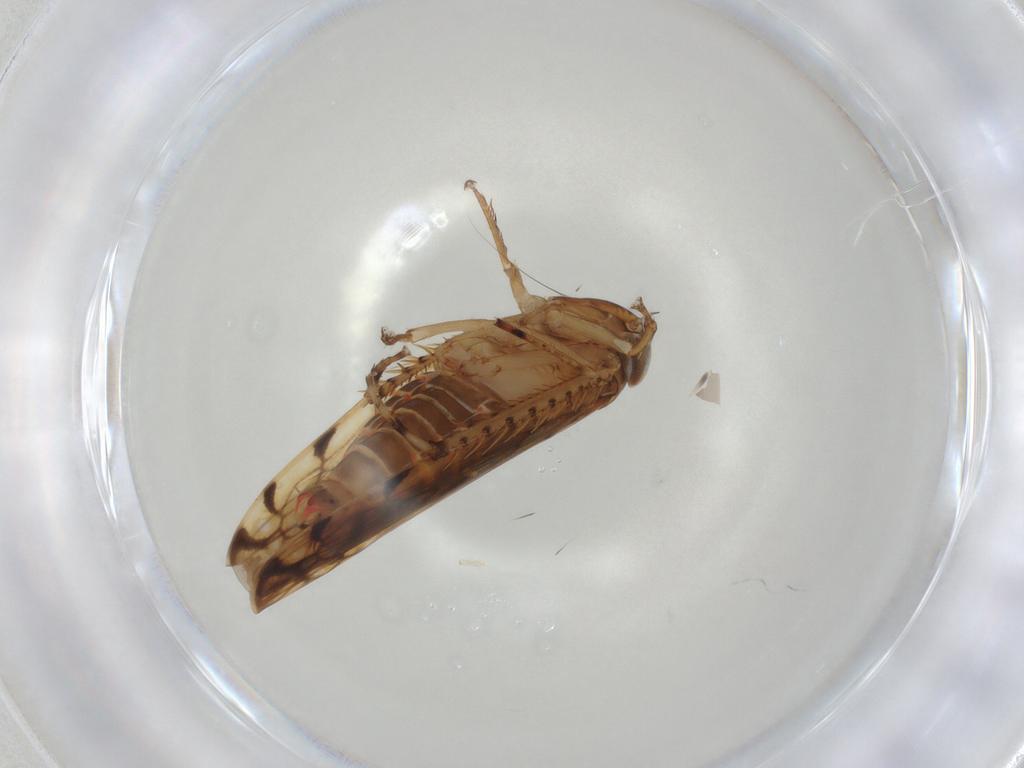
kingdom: Animalia
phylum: Arthropoda
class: Insecta
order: Hemiptera
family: Cicadellidae
